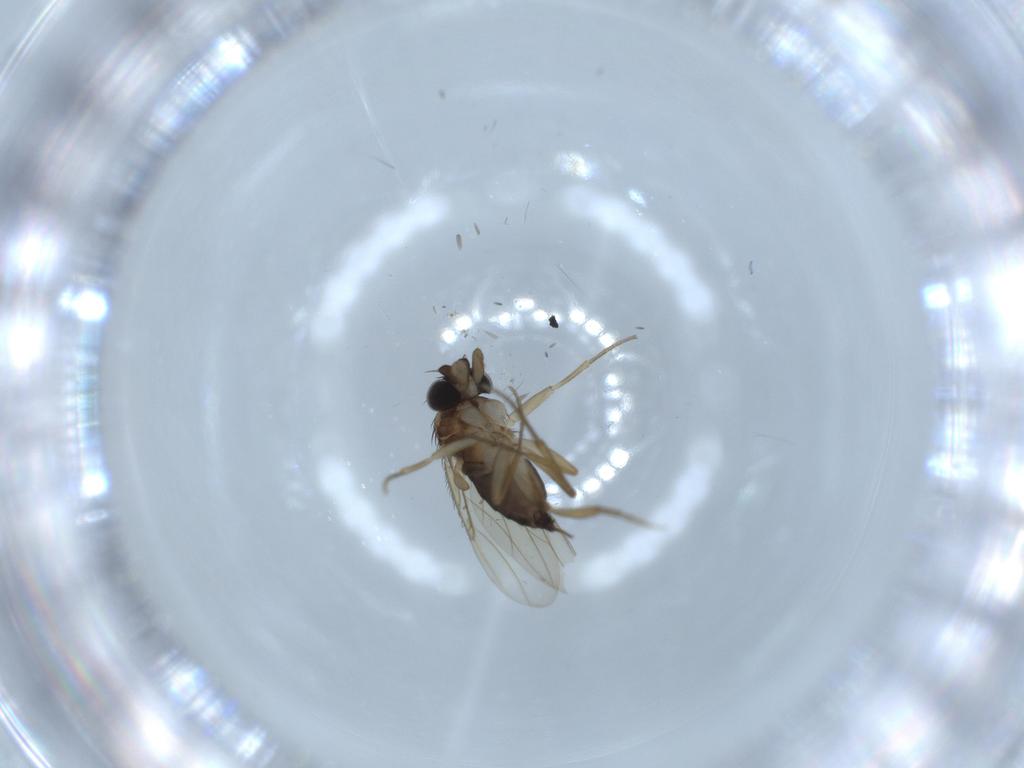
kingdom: Animalia
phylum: Arthropoda
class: Insecta
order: Diptera
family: Phoridae
